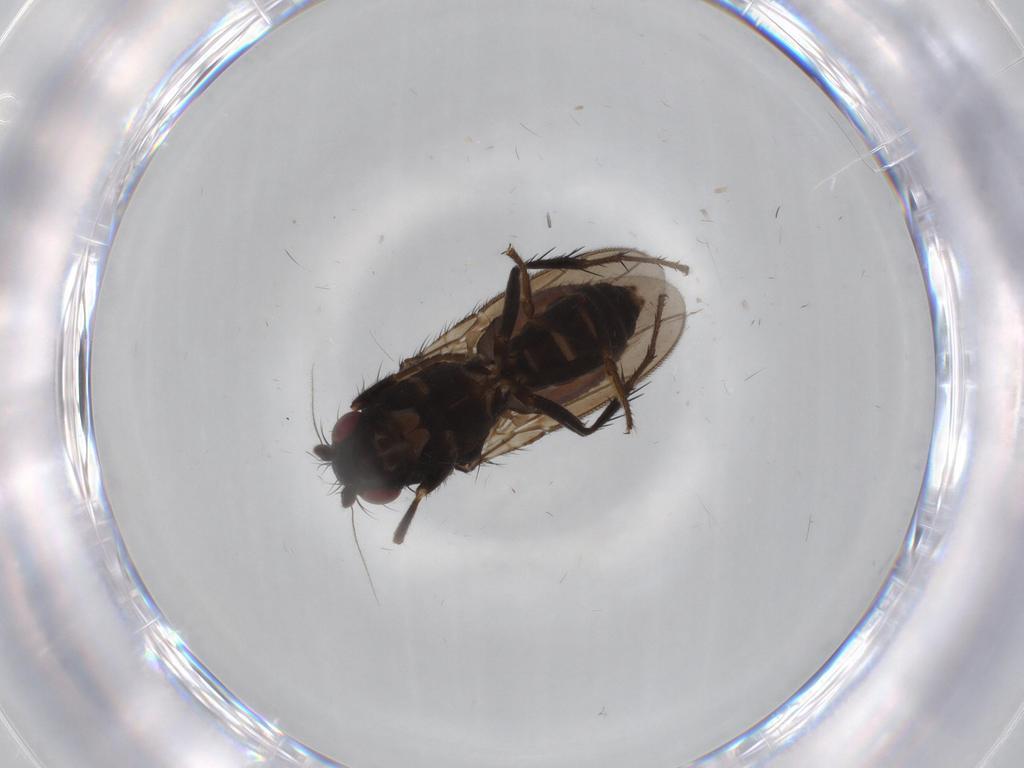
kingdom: Animalia
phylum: Arthropoda
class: Insecta
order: Diptera
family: Sphaeroceridae
